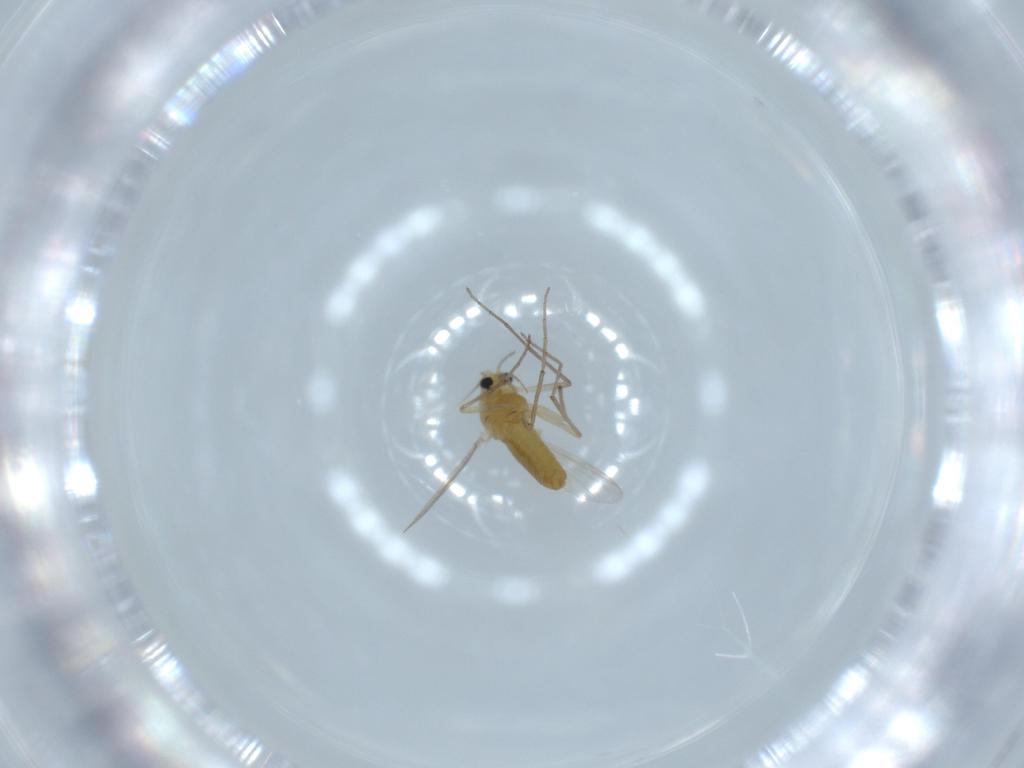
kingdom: Animalia
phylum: Arthropoda
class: Insecta
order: Diptera
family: Chironomidae
